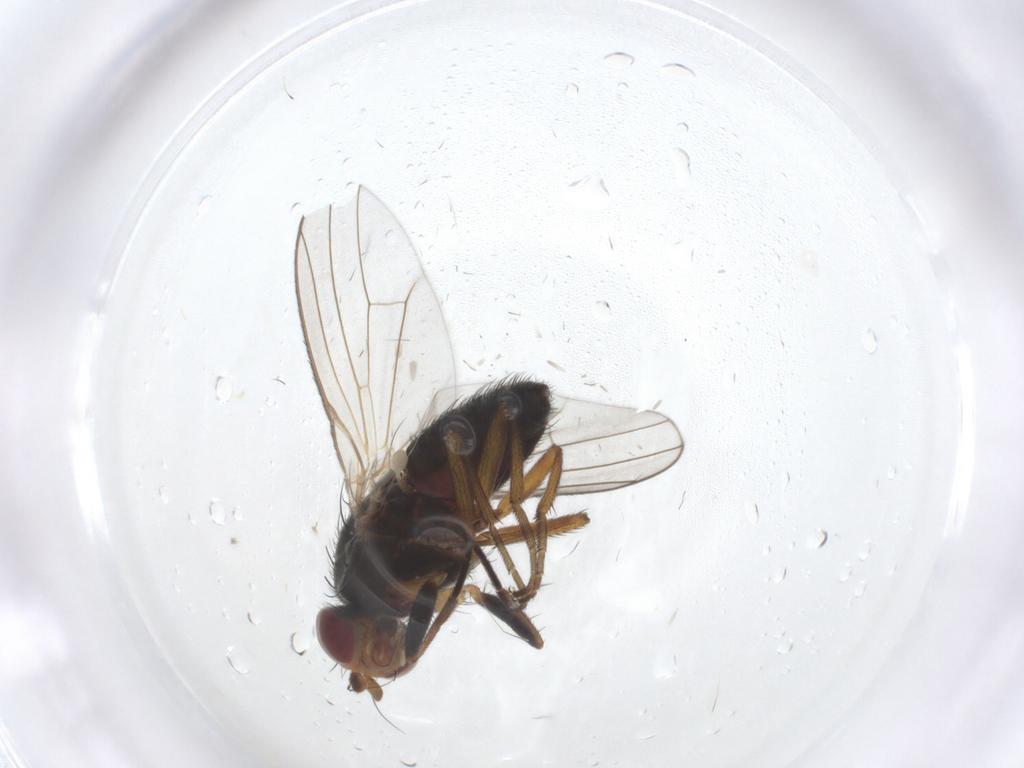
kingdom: Animalia
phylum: Arthropoda
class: Insecta
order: Diptera
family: Heleomyzidae
